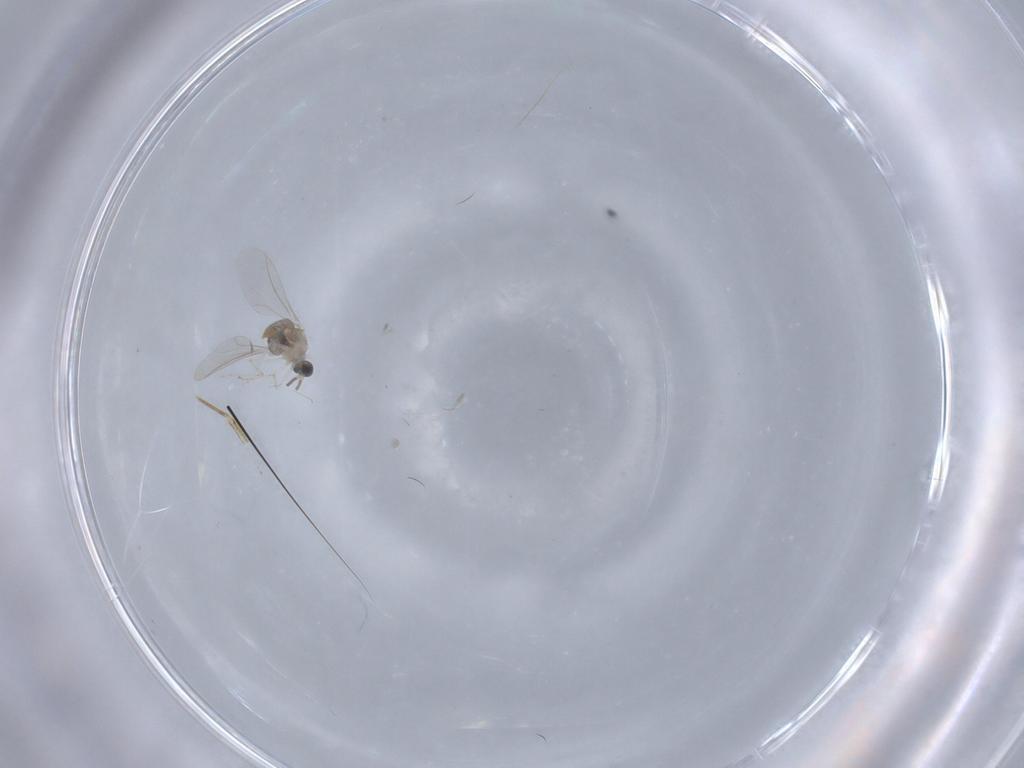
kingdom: Animalia
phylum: Arthropoda
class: Insecta
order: Diptera
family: Cecidomyiidae
